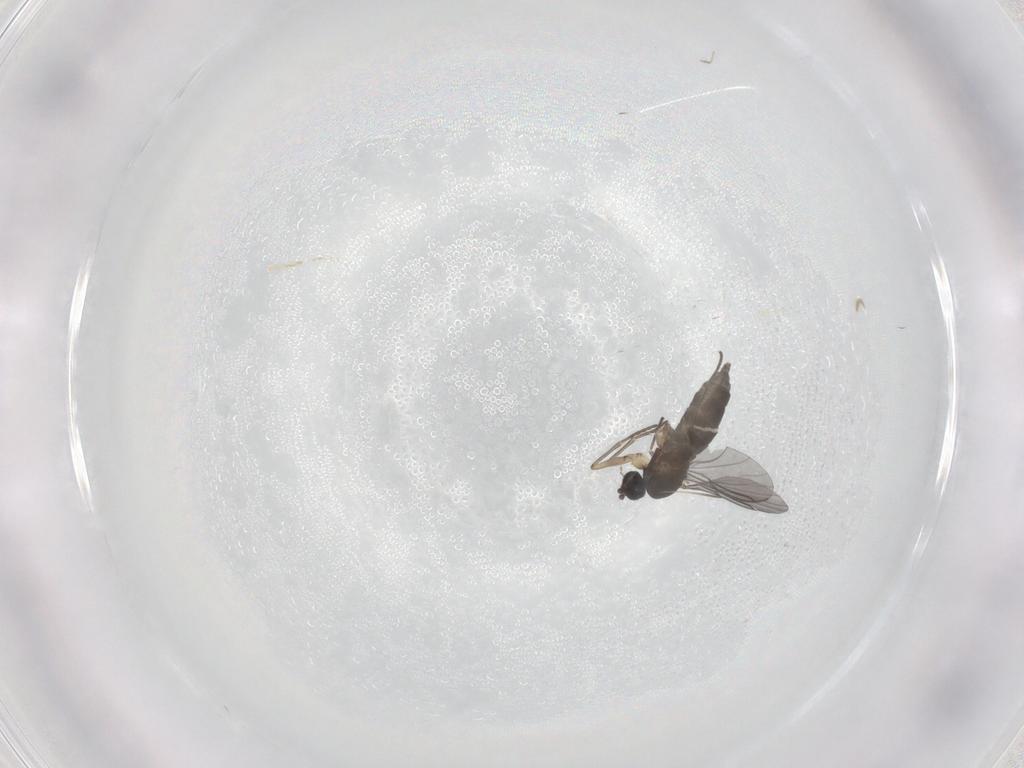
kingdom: Animalia
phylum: Arthropoda
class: Insecta
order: Diptera
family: Sciaridae
